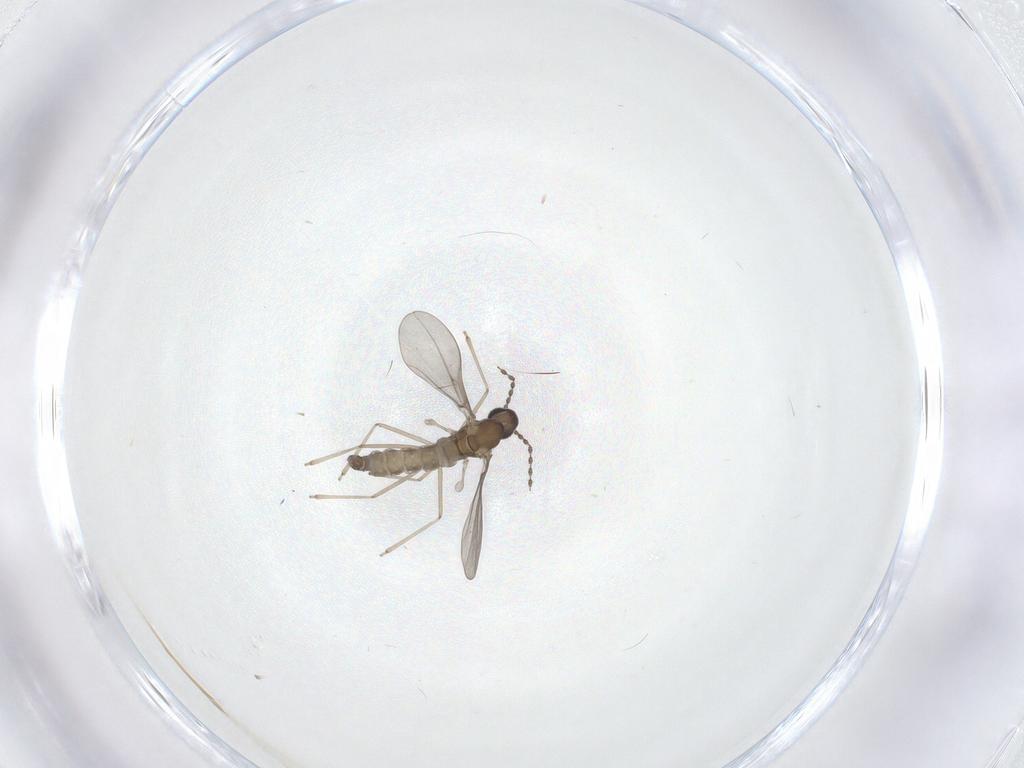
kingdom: Animalia
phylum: Arthropoda
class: Insecta
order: Diptera
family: Cecidomyiidae
